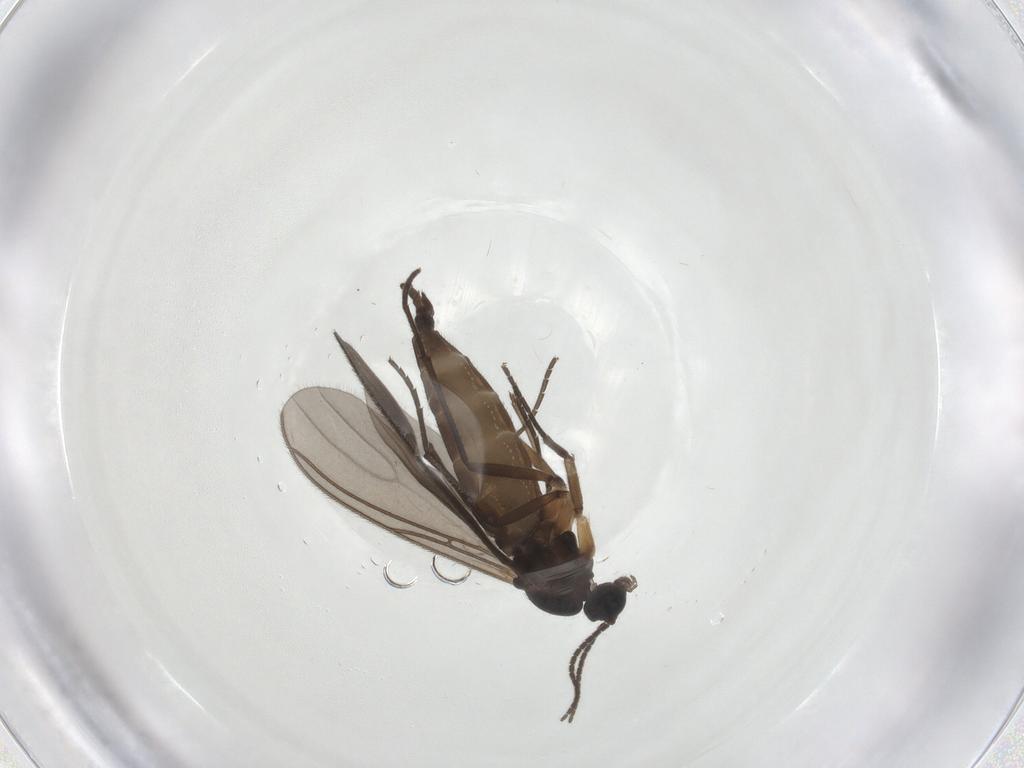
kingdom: Animalia
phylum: Arthropoda
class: Insecta
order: Diptera
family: Sciaridae
